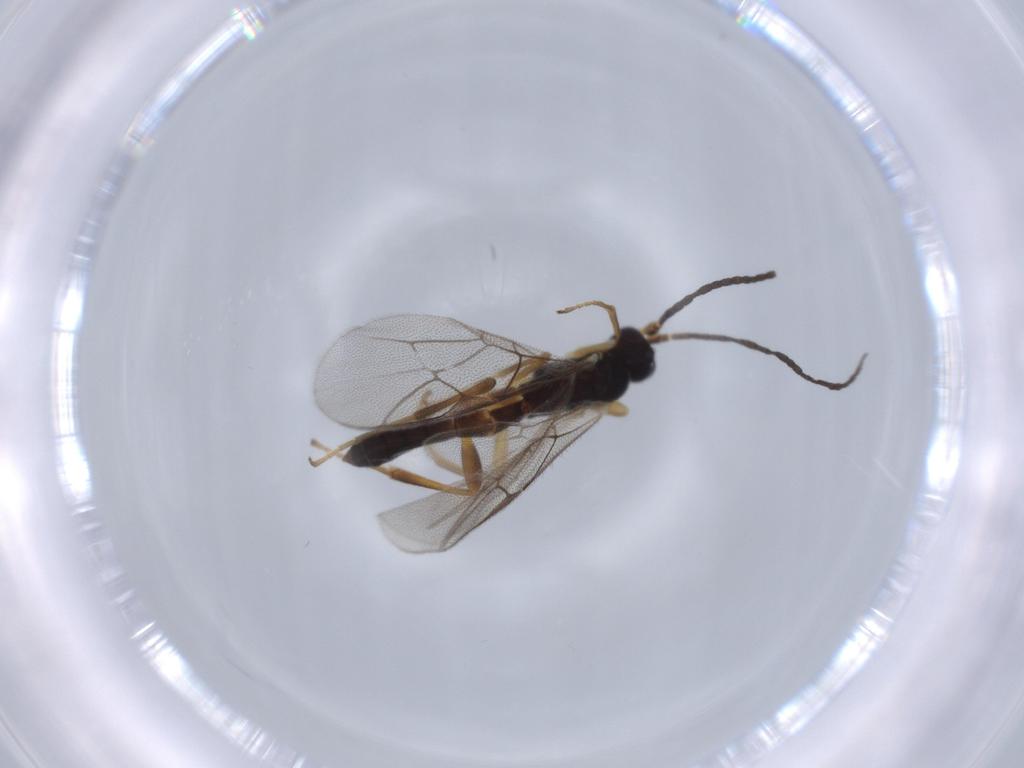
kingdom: Animalia
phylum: Arthropoda
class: Insecta
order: Hymenoptera
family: Ichneumonidae
